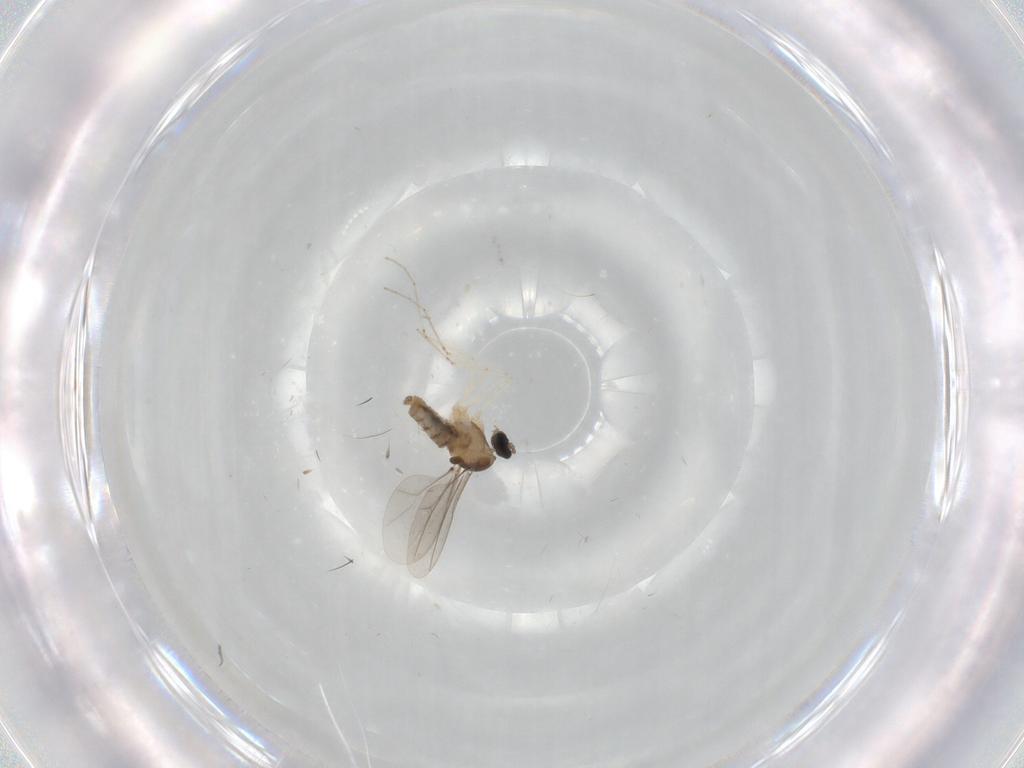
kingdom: Animalia
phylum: Arthropoda
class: Insecta
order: Diptera
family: Cecidomyiidae
